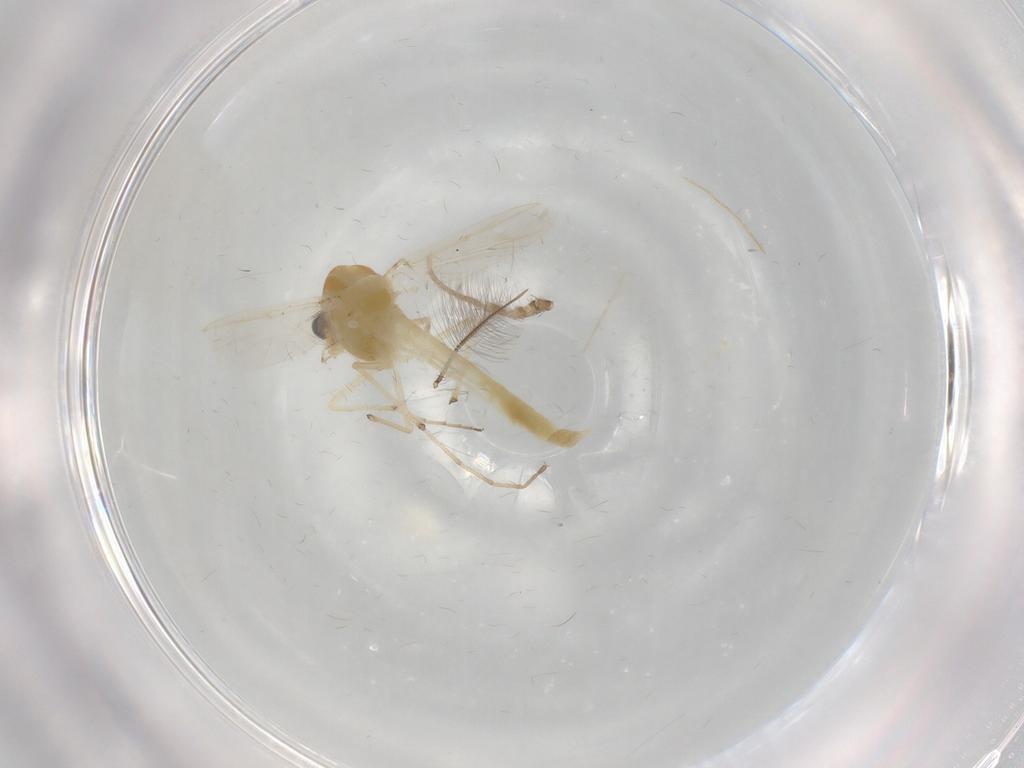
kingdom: Animalia
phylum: Arthropoda
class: Insecta
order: Diptera
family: Chironomidae
